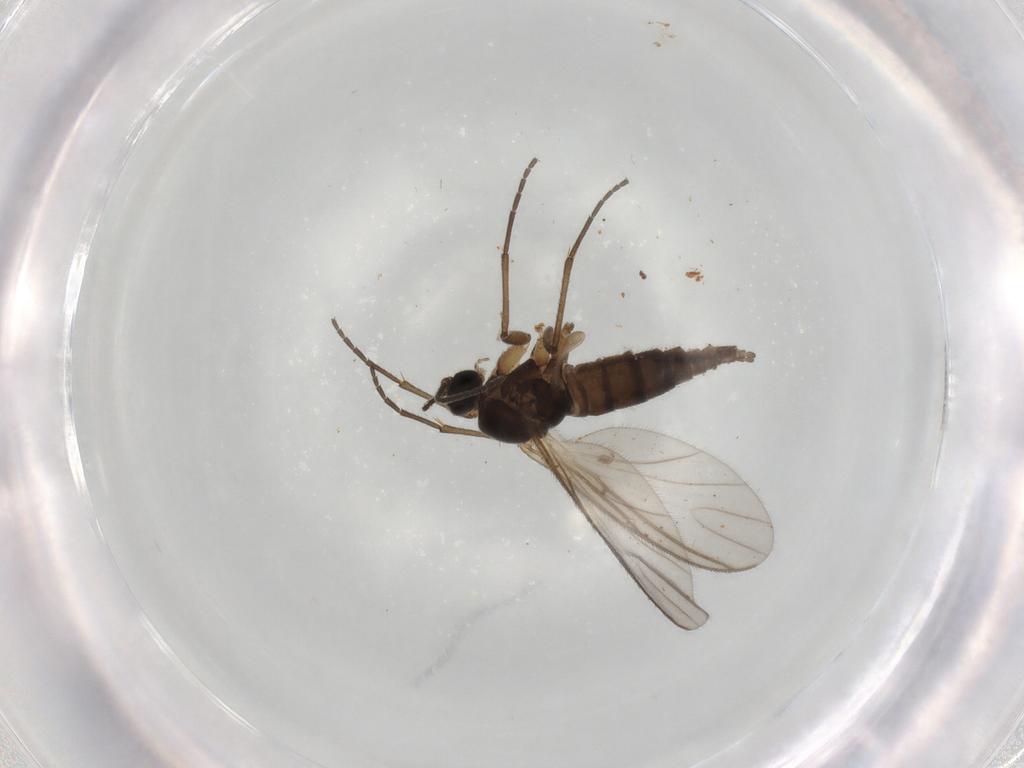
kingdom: Animalia
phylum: Arthropoda
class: Insecta
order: Diptera
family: Sciaridae
